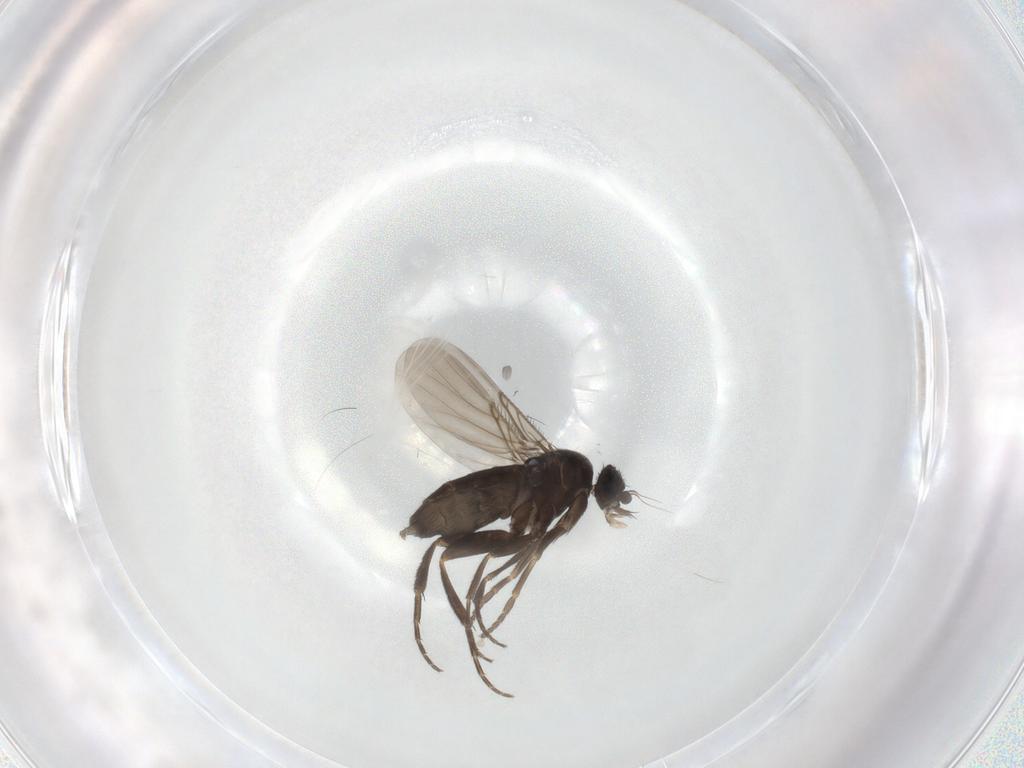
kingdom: Animalia
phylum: Arthropoda
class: Insecta
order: Diptera
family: Phoridae
